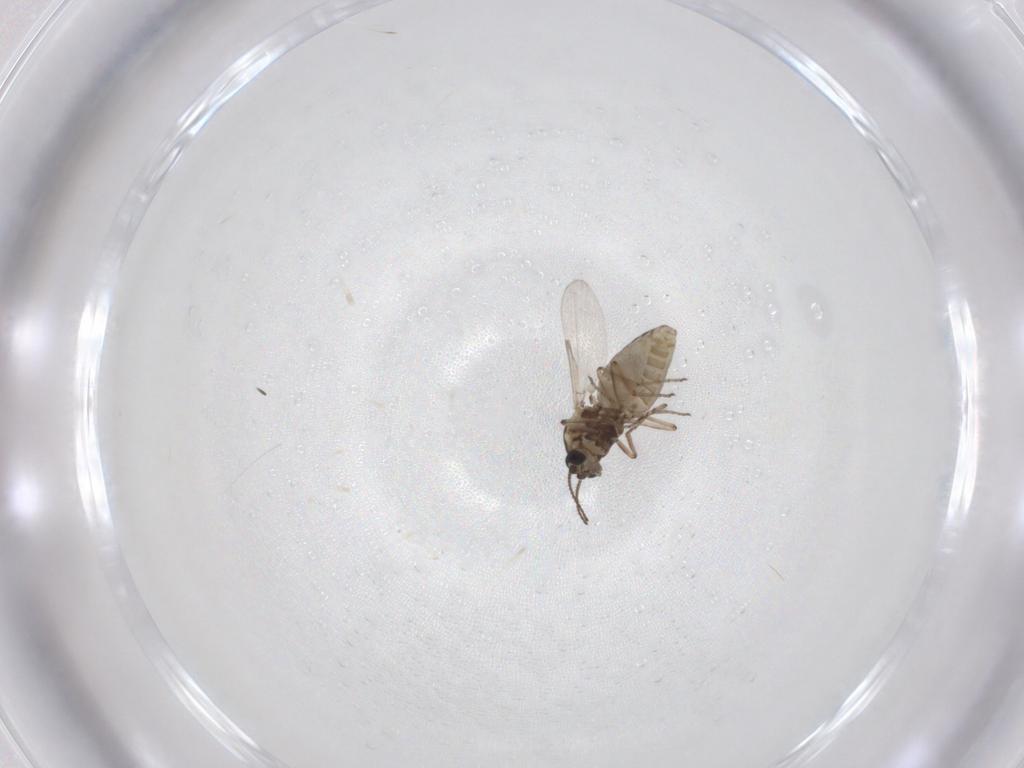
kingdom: Animalia
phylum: Arthropoda
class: Insecta
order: Diptera
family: Ceratopogonidae
